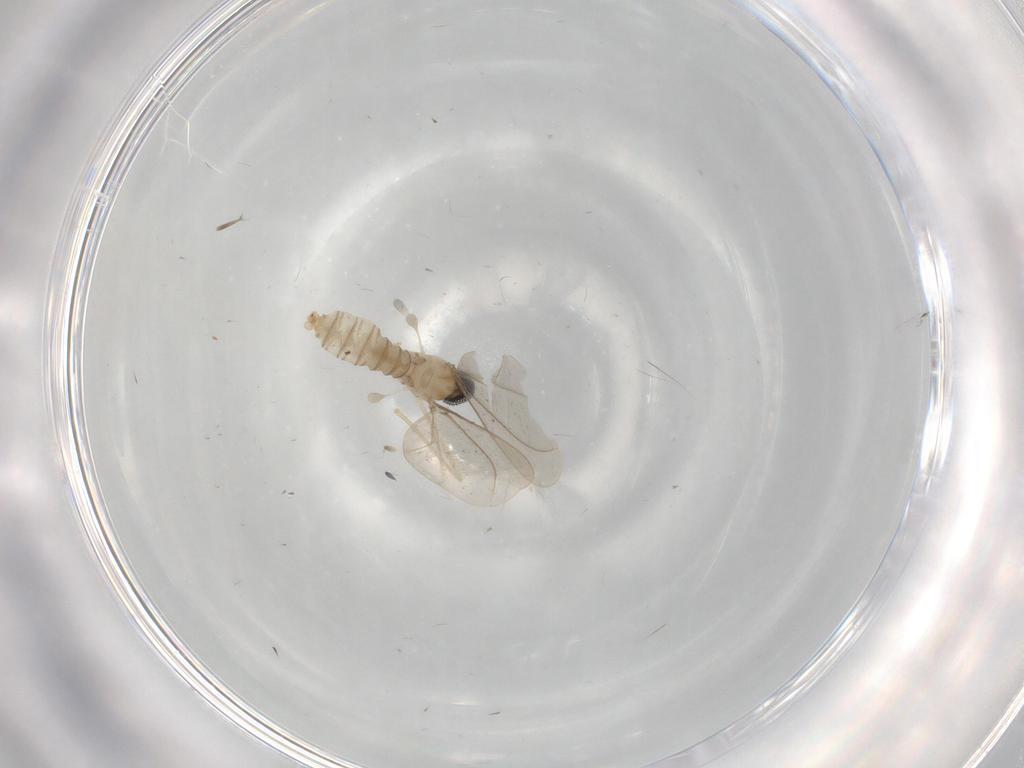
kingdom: Animalia
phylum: Arthropoda
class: Insecta
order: Diptera
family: Cecidomyiidae
